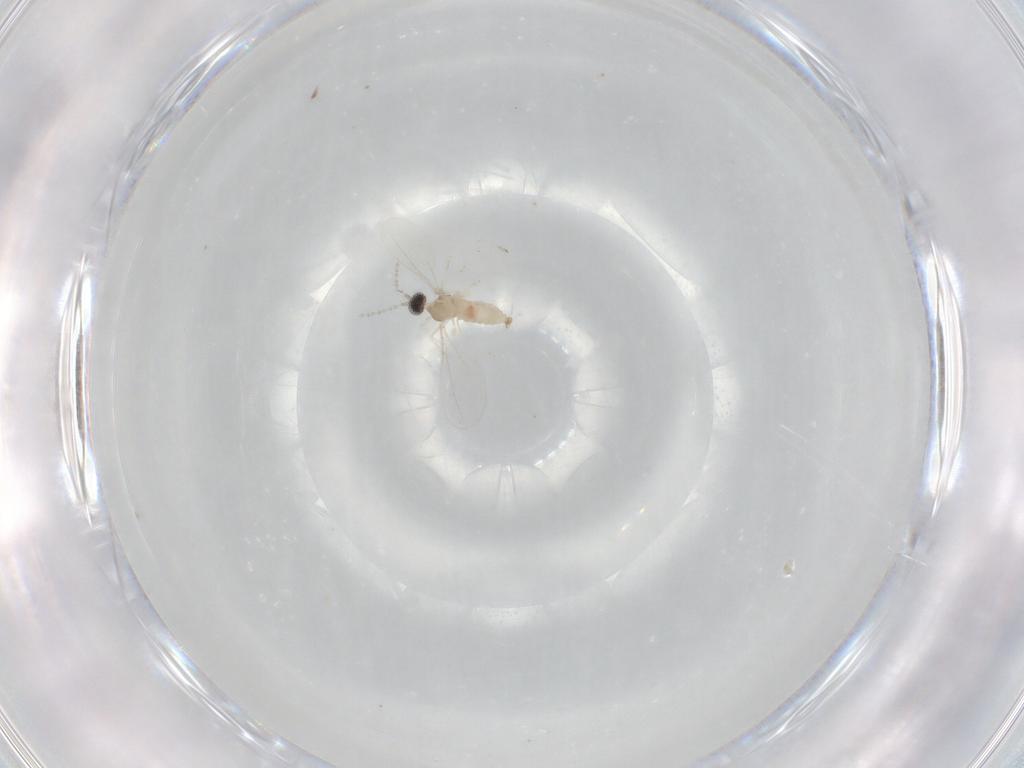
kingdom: Animalia
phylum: Arthropoda
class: Insecta
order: Diptera
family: Cecidomyiidae
